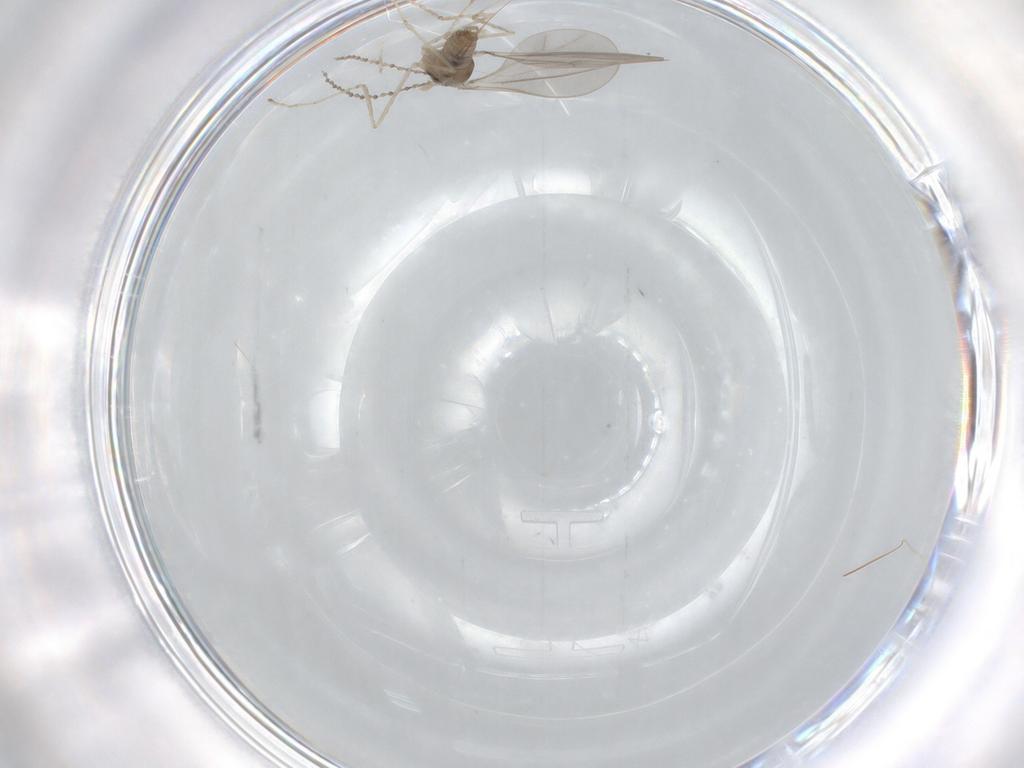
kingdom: Animalia
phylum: Arthropoda
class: Insecta
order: Diptera
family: Cecidomyiidae
